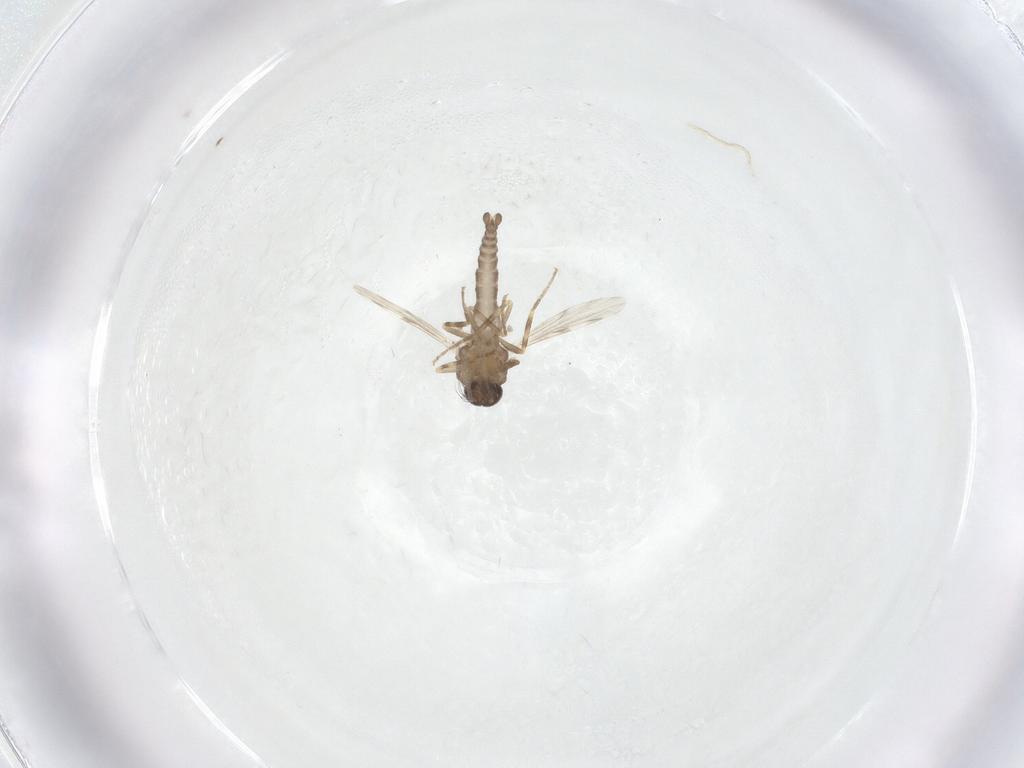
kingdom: Animalia
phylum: Arthropoda
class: Insecta
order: Diptera
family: Ceratopogonidae
